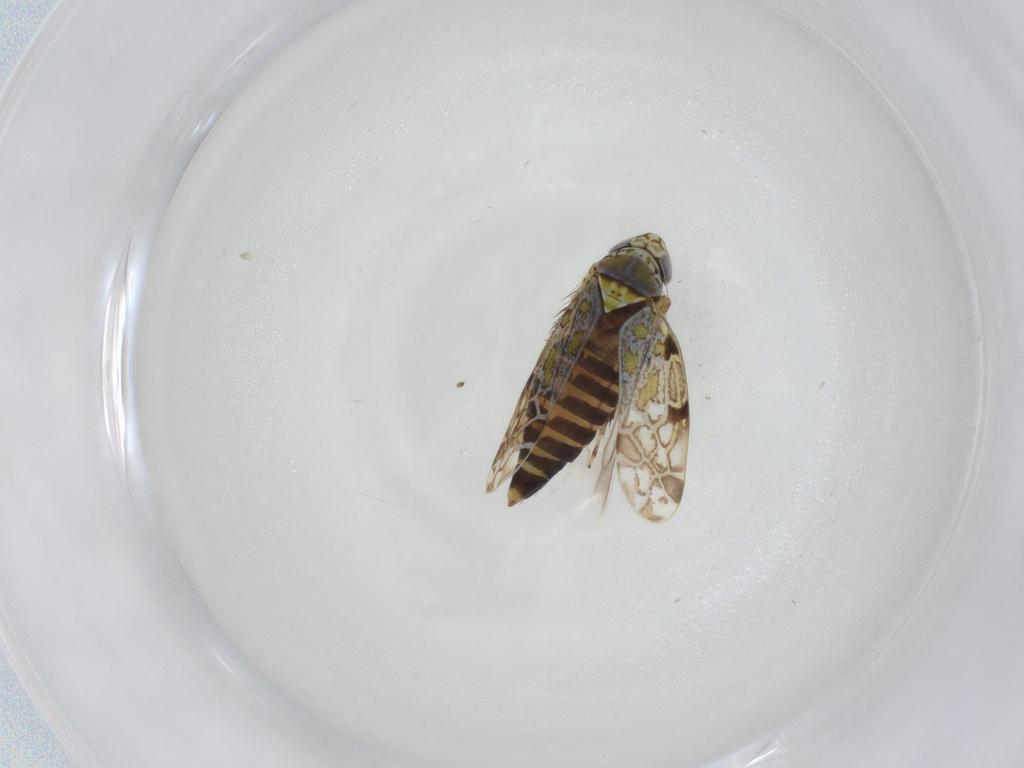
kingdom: Animalia
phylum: Arthropoda
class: Insecta
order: Hemiptera
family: Cicadellidae
